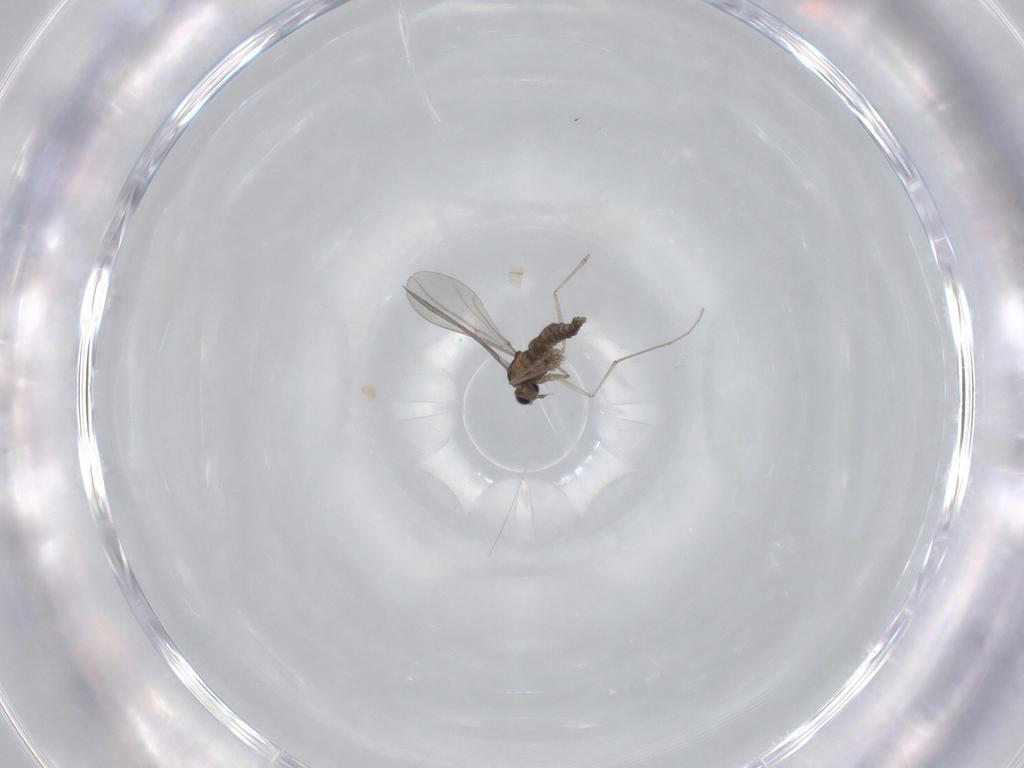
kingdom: Animalia
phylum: Arthropoda
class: Insecta
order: Diptera
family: Cecidomyiidae
